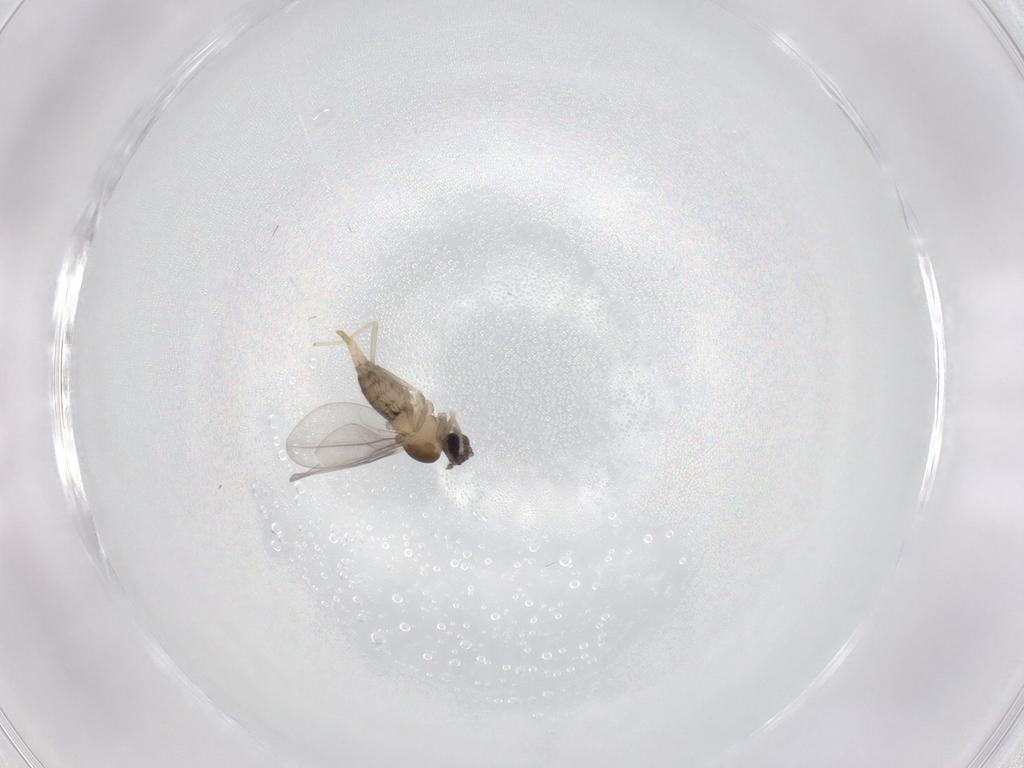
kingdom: Animalia
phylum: Arthropoda
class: Insecta
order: Diptera
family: Cecidomyiidae
